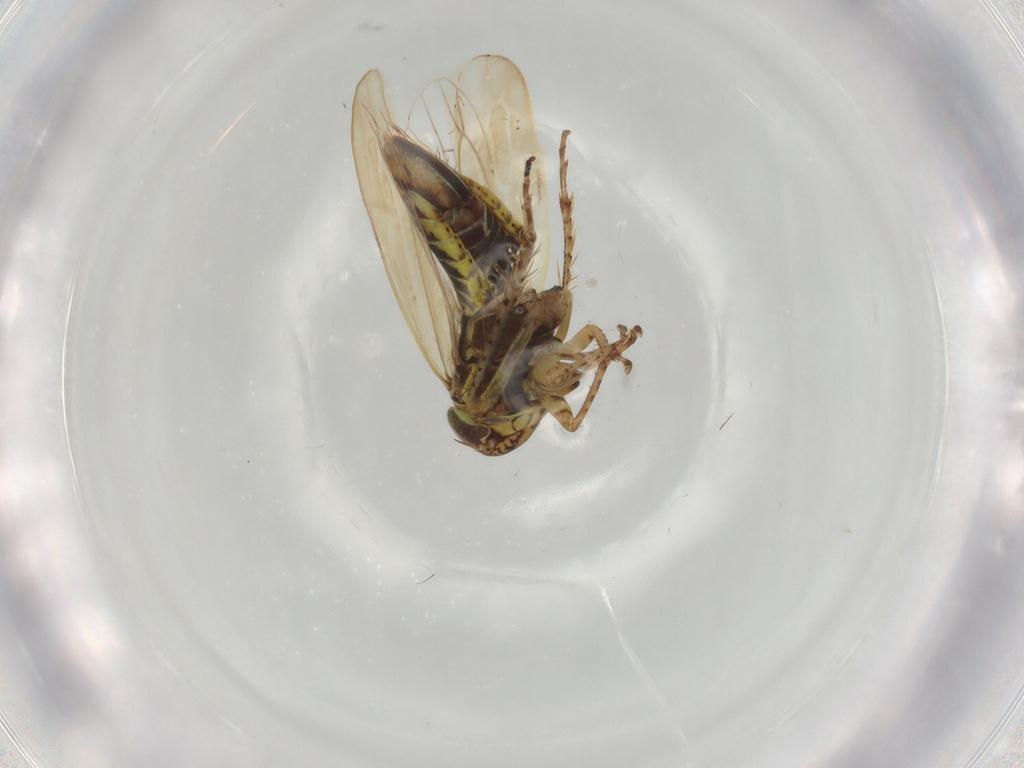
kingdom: Animalia
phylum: Arthropoda
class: Insecta
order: Hemiptera
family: Cicadellidae
